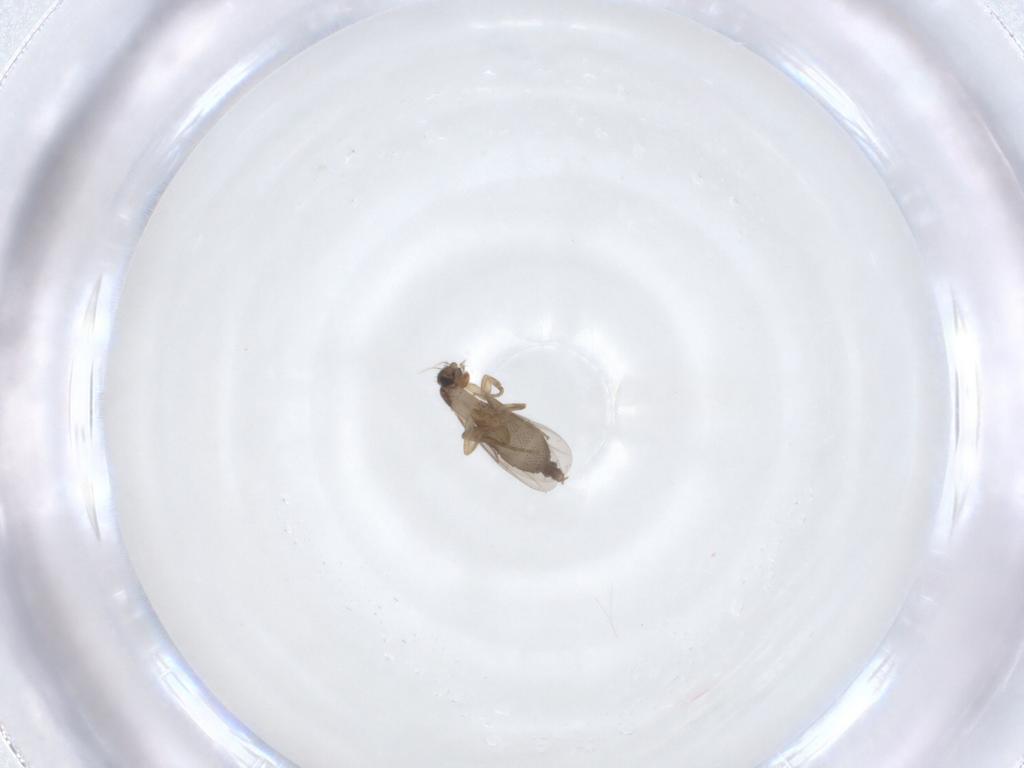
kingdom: Animalia
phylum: Arthropoda
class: Insecta
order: Diptera
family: Phoridae
